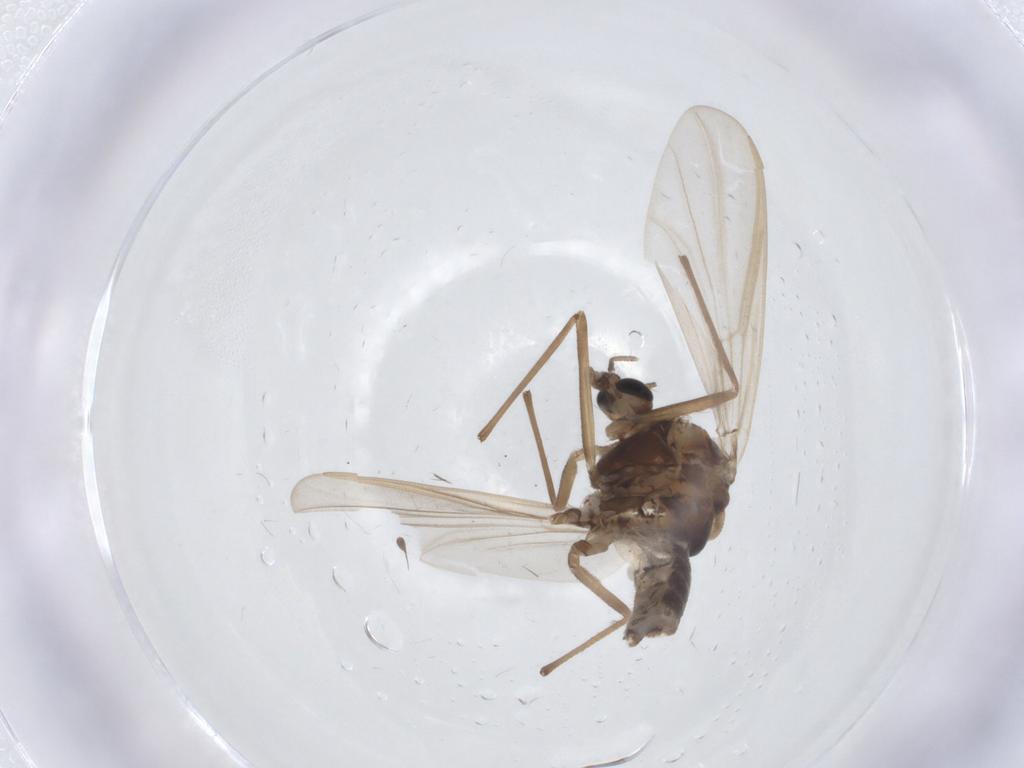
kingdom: Animalia
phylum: Arthropoda
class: Insecta
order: Diptera
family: Chironomidae
